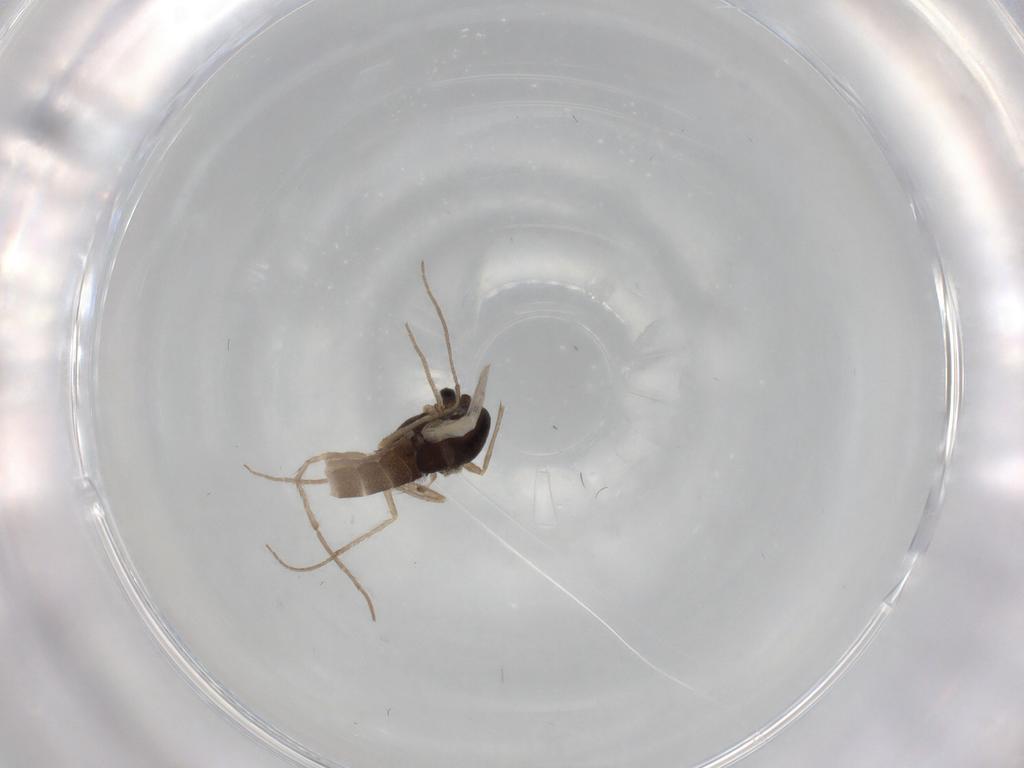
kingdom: Animalia
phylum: Arthropoda
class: Insecta
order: Diptera
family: Chironomidae
